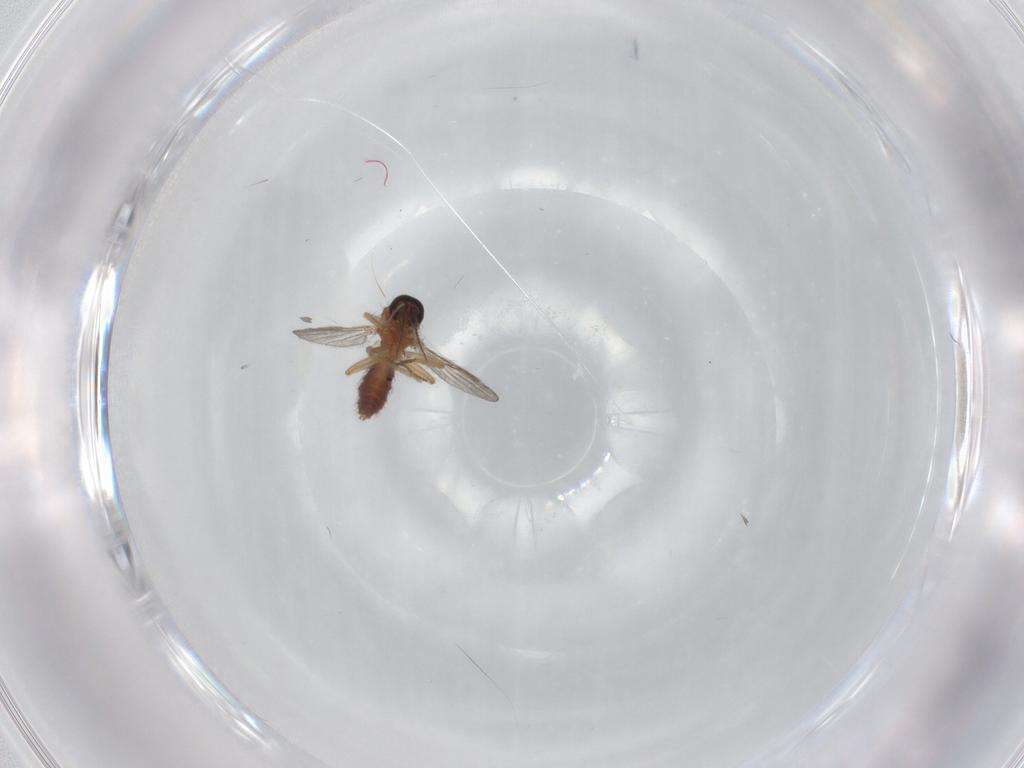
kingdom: Animalia
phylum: Arthropoda
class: Insecta
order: Diptera
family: Ceratopogonidae
